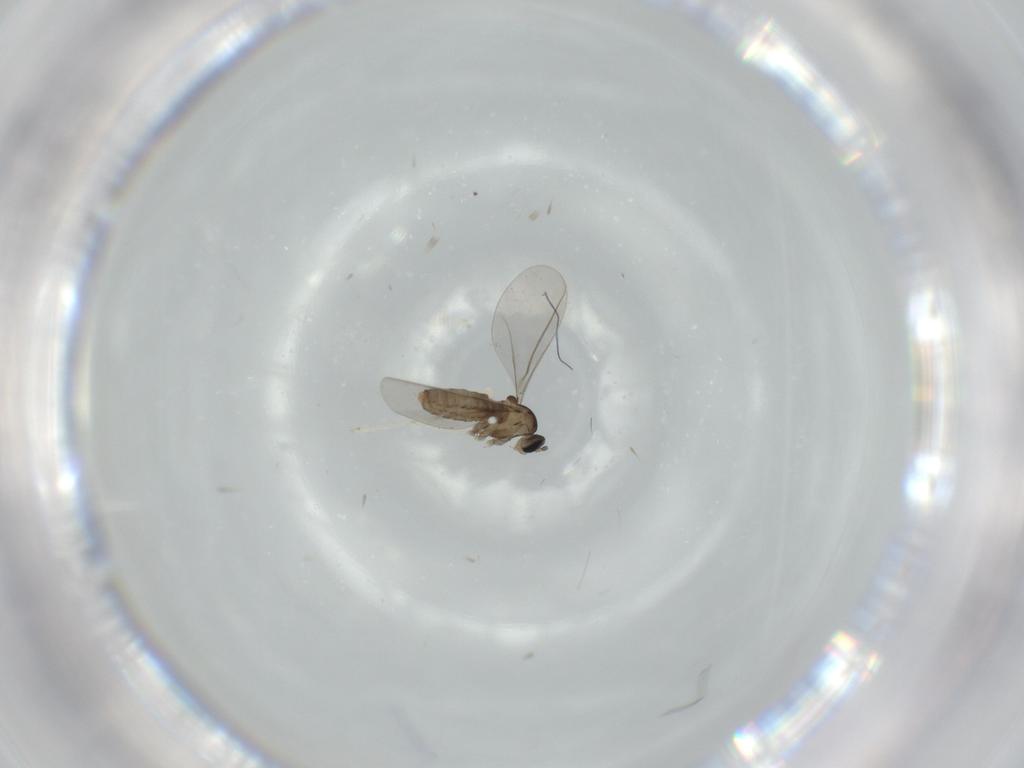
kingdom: Animalia
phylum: Arthropoda
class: Insecta
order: Diptera
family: Cecidomyiidae
